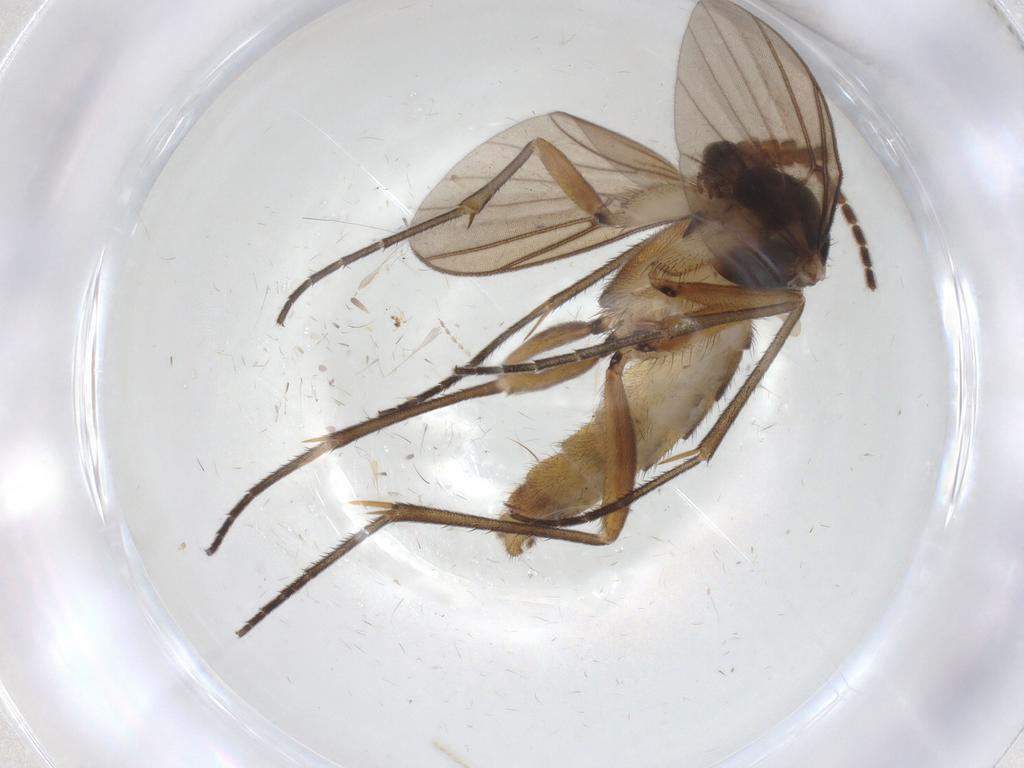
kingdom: Animalia
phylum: Arthropoda
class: Insecta
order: Diptera
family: Mycetophilidae
